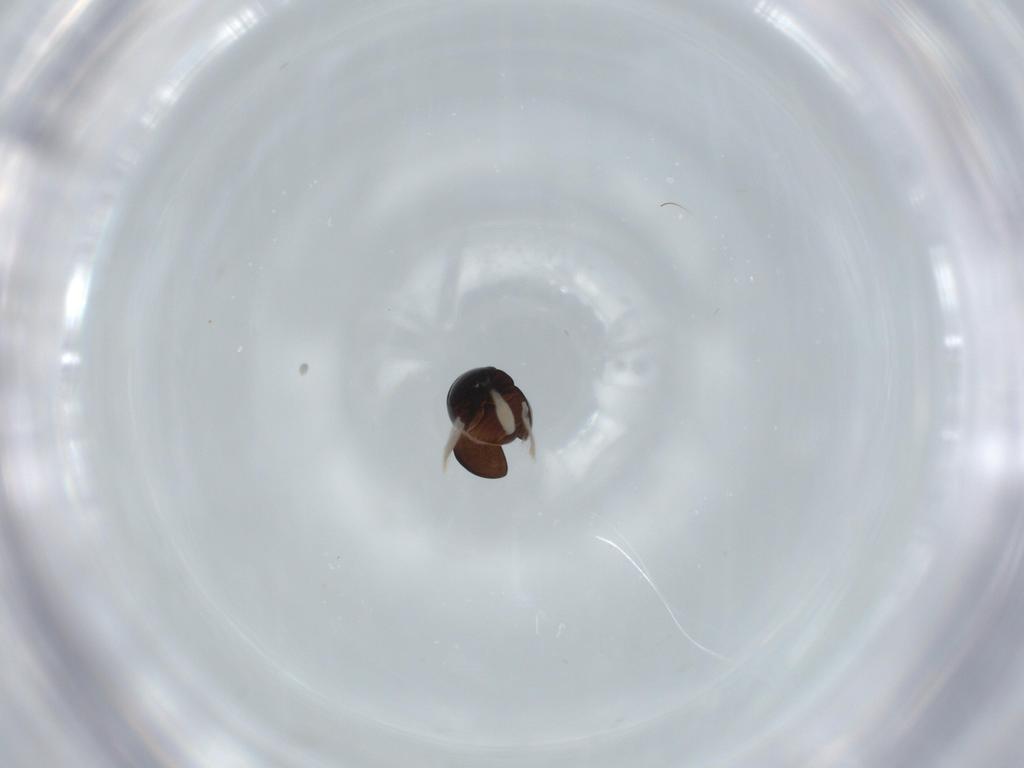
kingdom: Animalia
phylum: Arthropoda
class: Insecta
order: Coleoptera
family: Cybocephalidae
